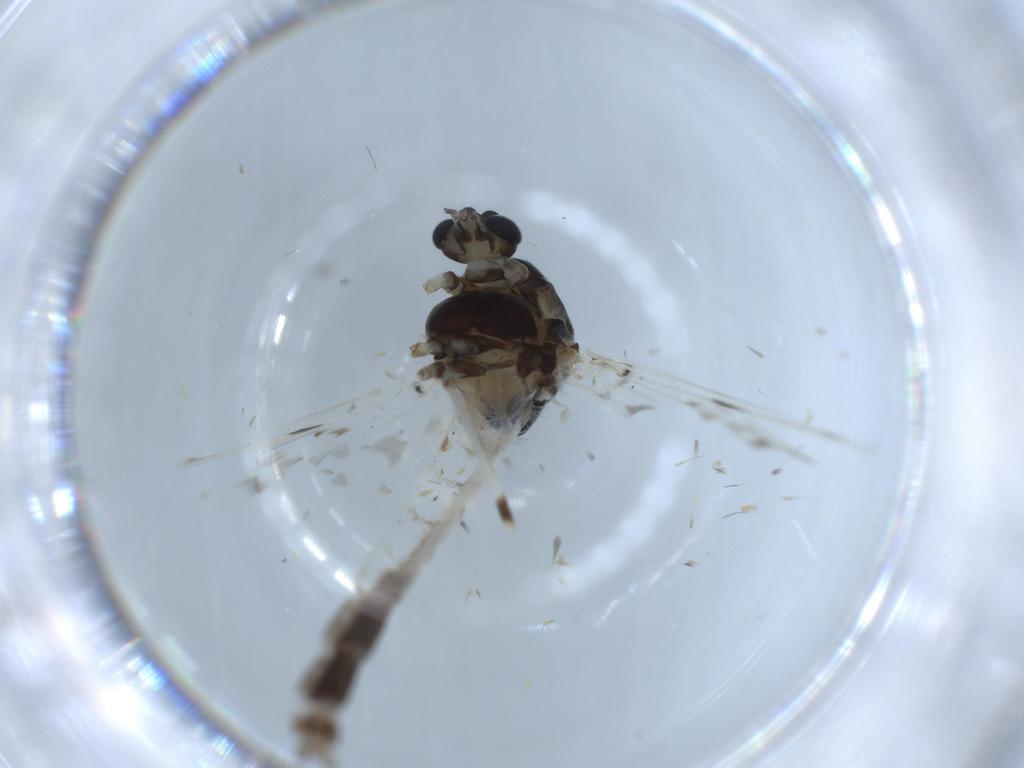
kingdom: Animalia
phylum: Arthropoda
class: Insecta
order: Diptera
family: Chironomidae
